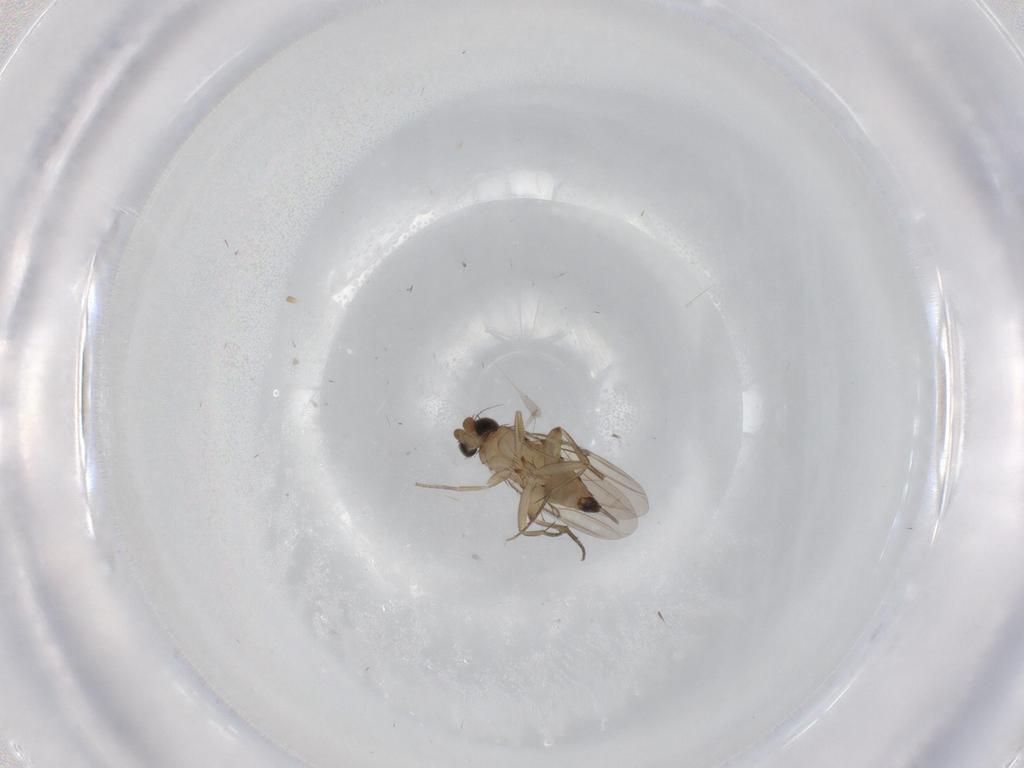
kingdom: Animalia
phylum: Arthropoda
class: Insecta
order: Diptera
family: Phoridae
